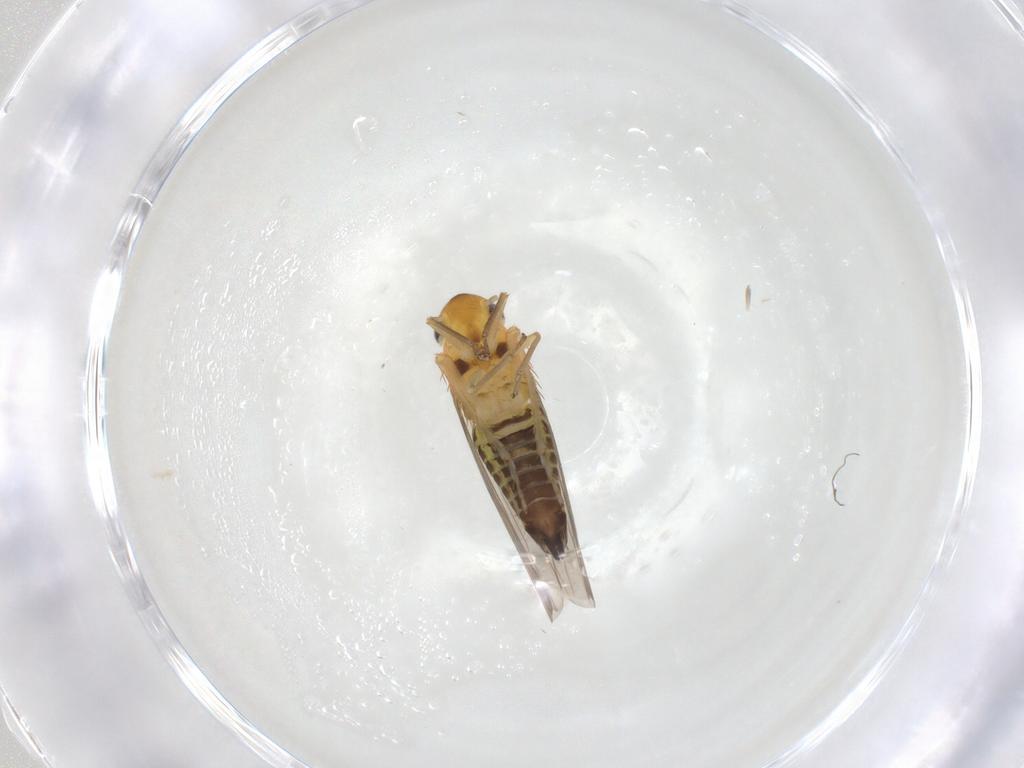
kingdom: Animalia
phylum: Arthropoda
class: Insecta
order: Hemiptera
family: Cicadellidae
